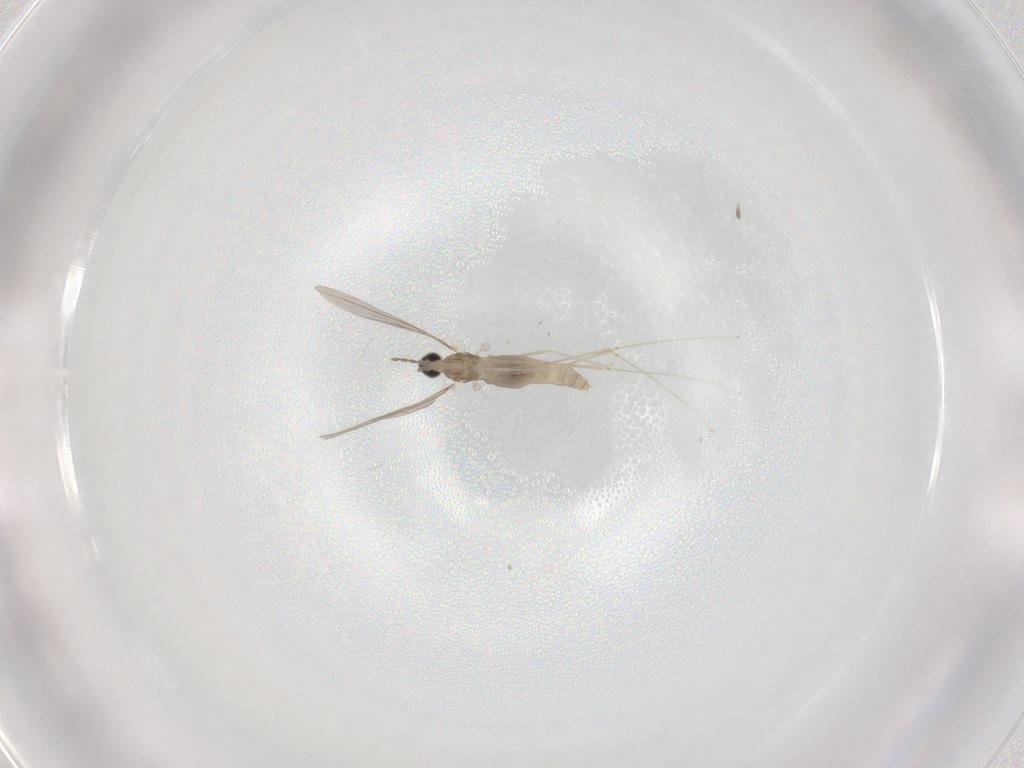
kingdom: Animalia
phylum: Arthropoda
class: Insecta
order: Diptera
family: Cecidomyiidae
